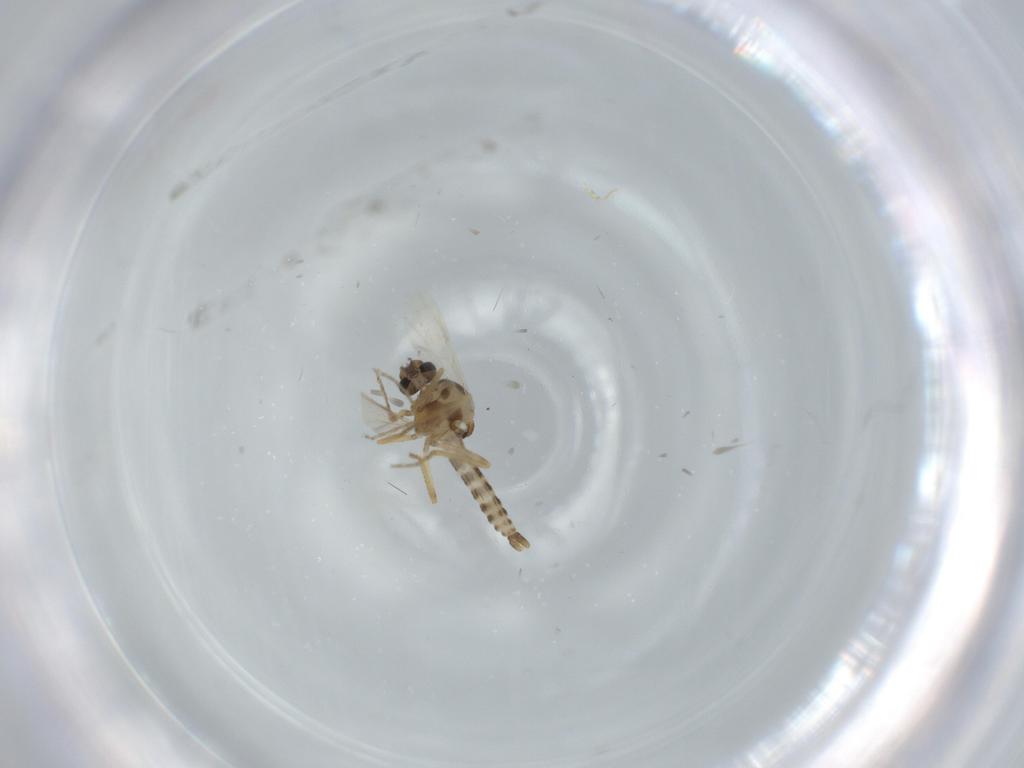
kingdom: Animalia
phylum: Arthropoda
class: Insecta
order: Diptera
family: Ceratopogonidae
